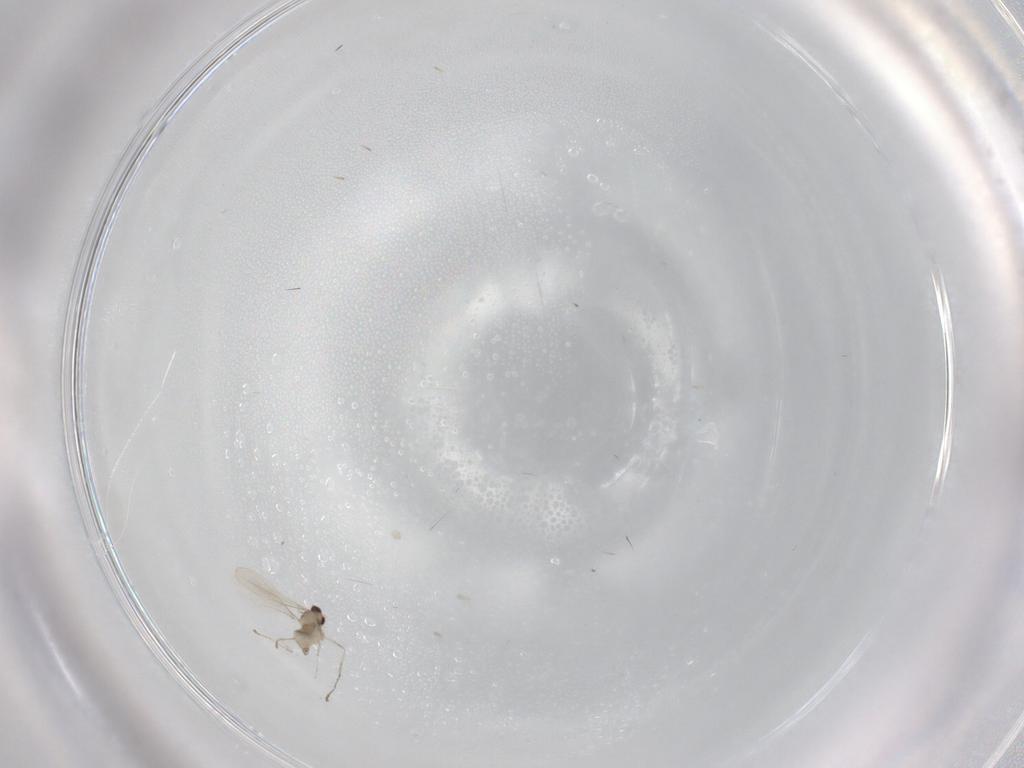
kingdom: Animalia
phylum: Arthropoda
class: Insecta
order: Diptera
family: Cecidomyiidae
